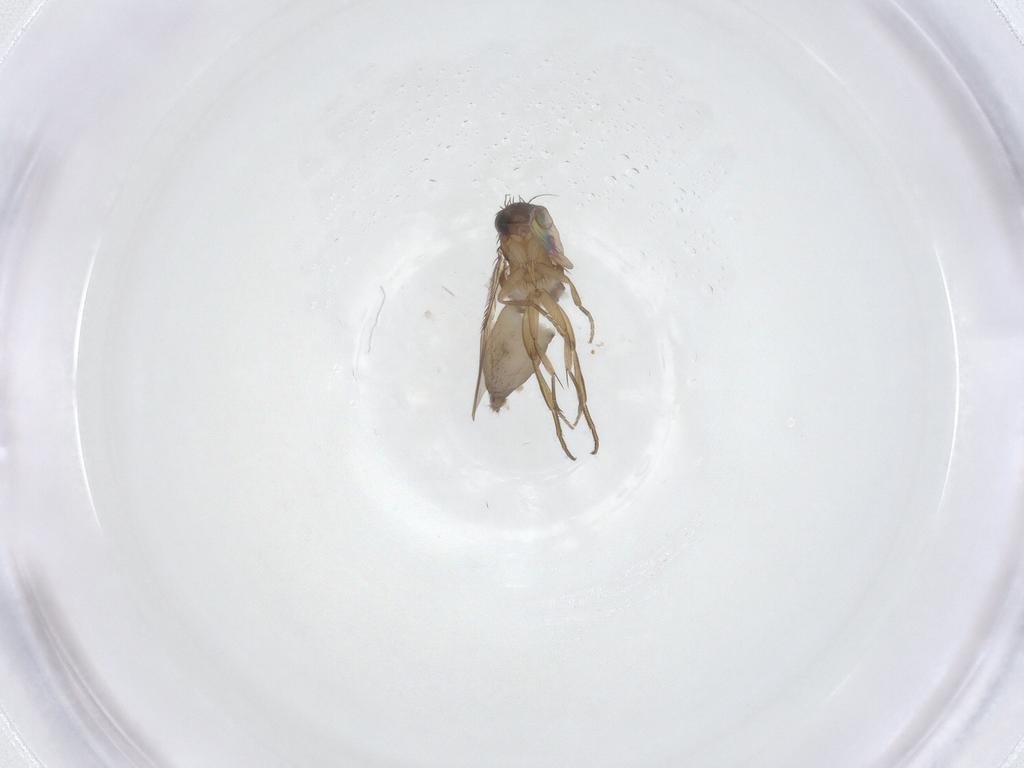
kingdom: Animalia
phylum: Arthropoda
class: Insecta
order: Diptera
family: Phoridae
